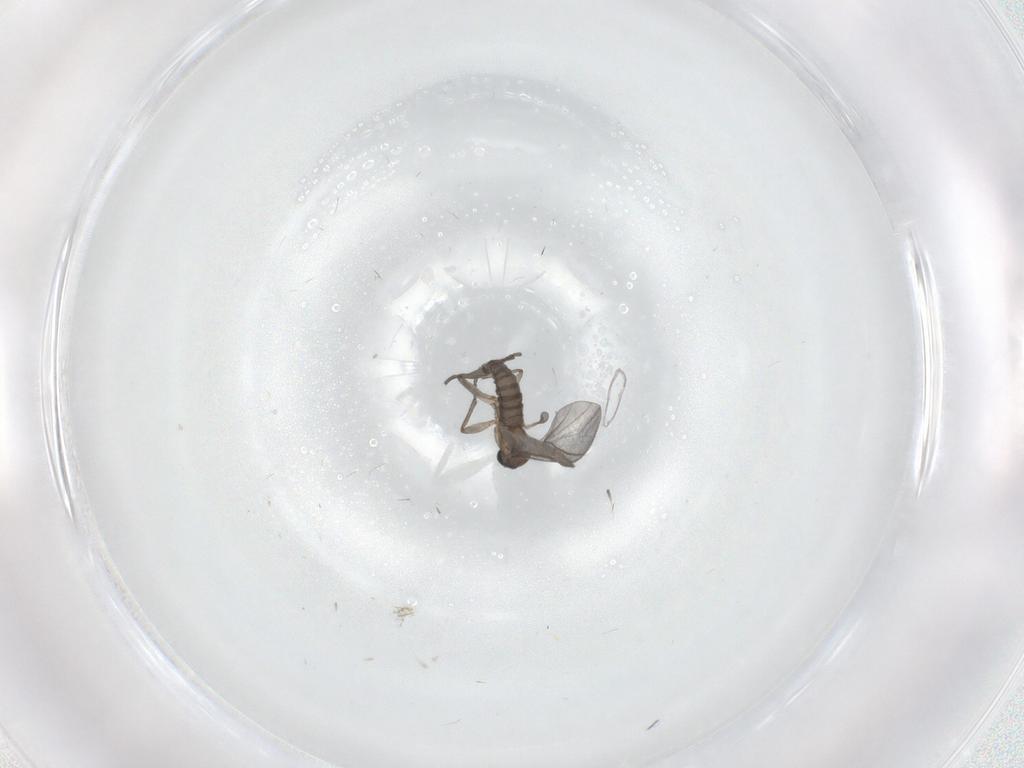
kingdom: Animalia
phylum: Arthropoda
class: Insecta
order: Diptera
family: Sciaridae
